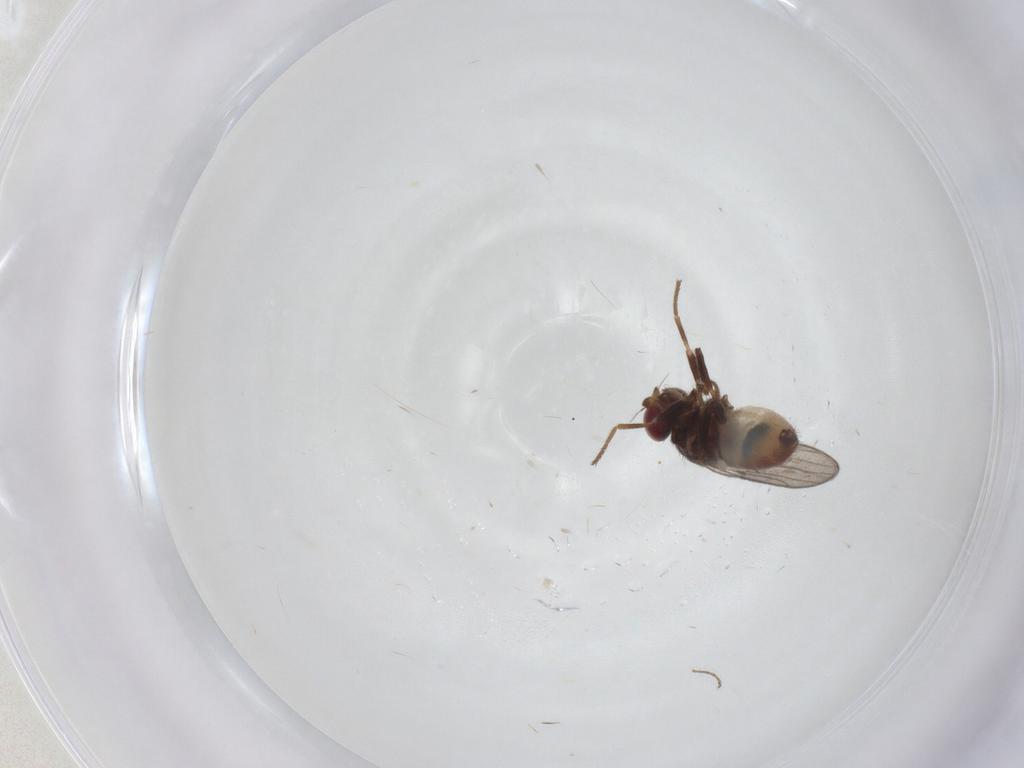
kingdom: Animalia
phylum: Arthropoda
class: Insecta
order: Diptera
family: Chloropidae
